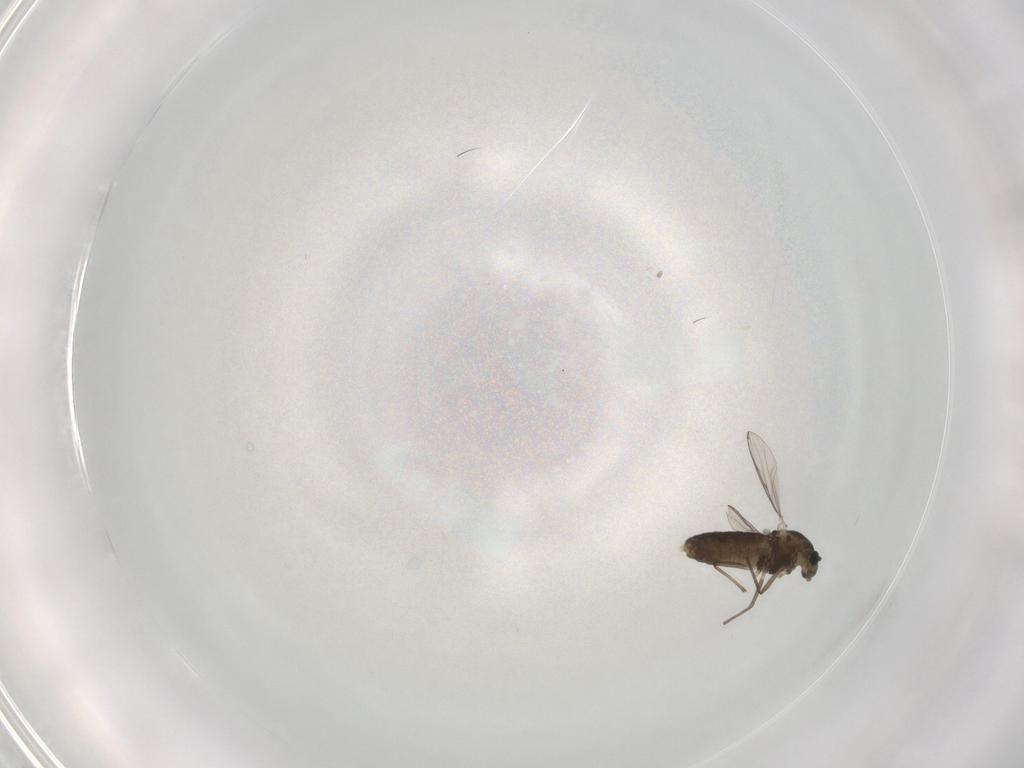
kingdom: Animalia
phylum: Arthropoda
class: Insecta
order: Diptera
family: Chironomidae
